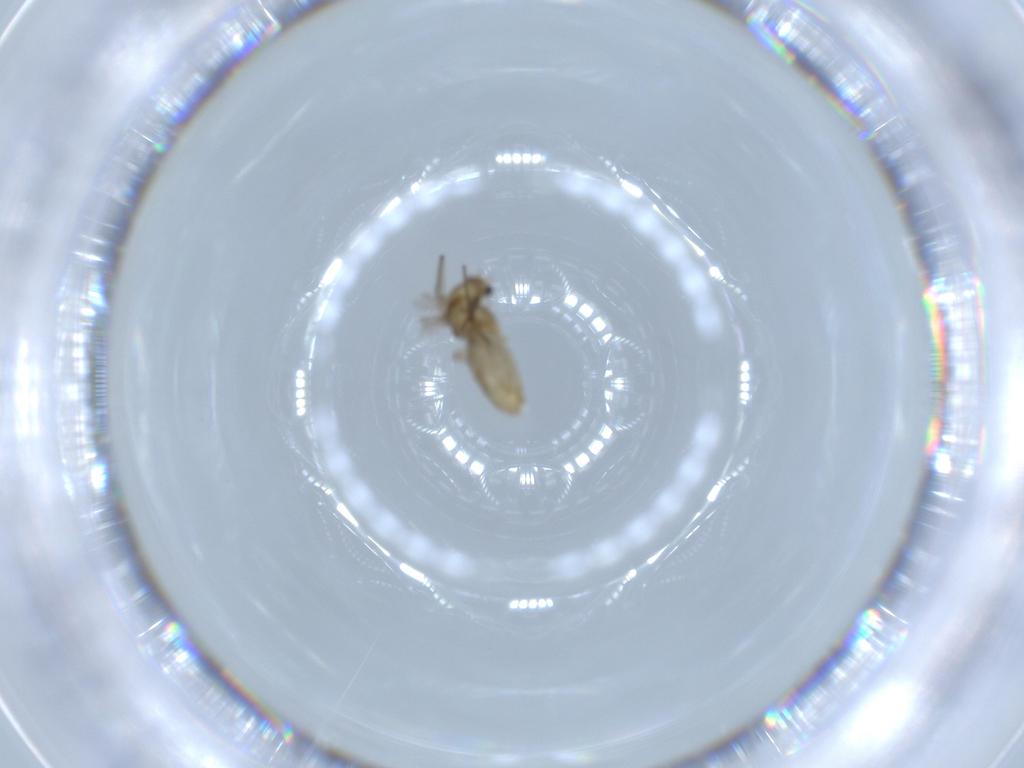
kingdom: Animalia
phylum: Arthropoda
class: Insecta
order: Diptera
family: Chironomidae
